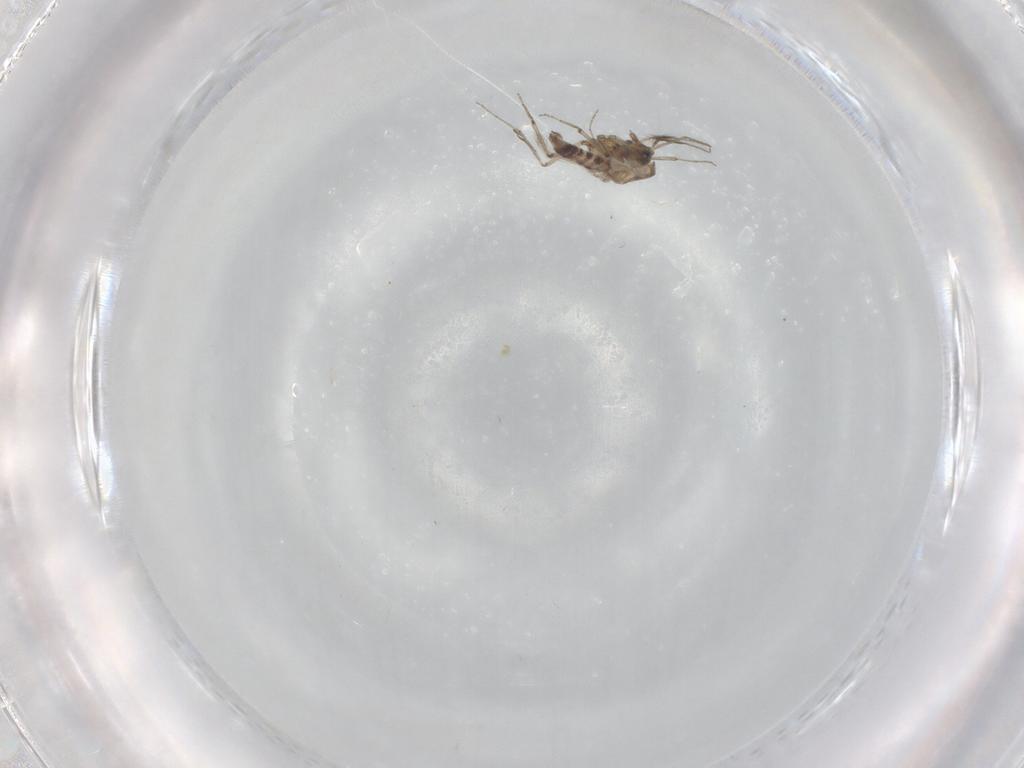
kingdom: Animalia
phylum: Arthropoda
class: Insecta
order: Diptera
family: Ceratopogonidae
